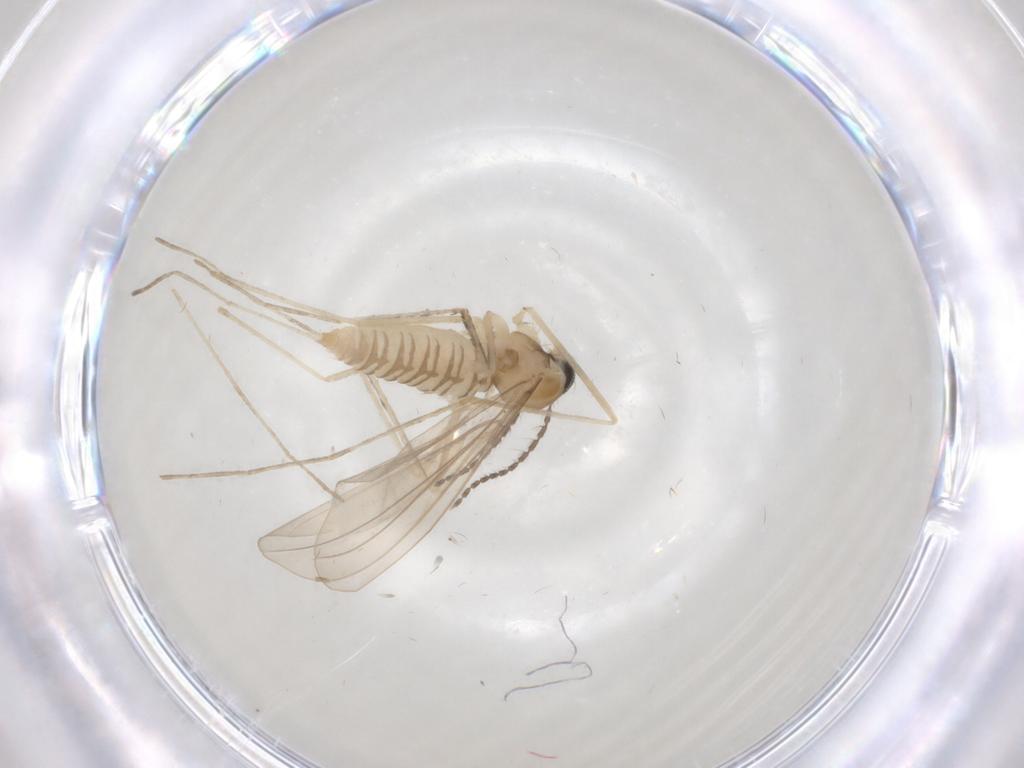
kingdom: Animalia
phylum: Arthropoda
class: Insecta
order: Diptera
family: Cecidomyiidae
